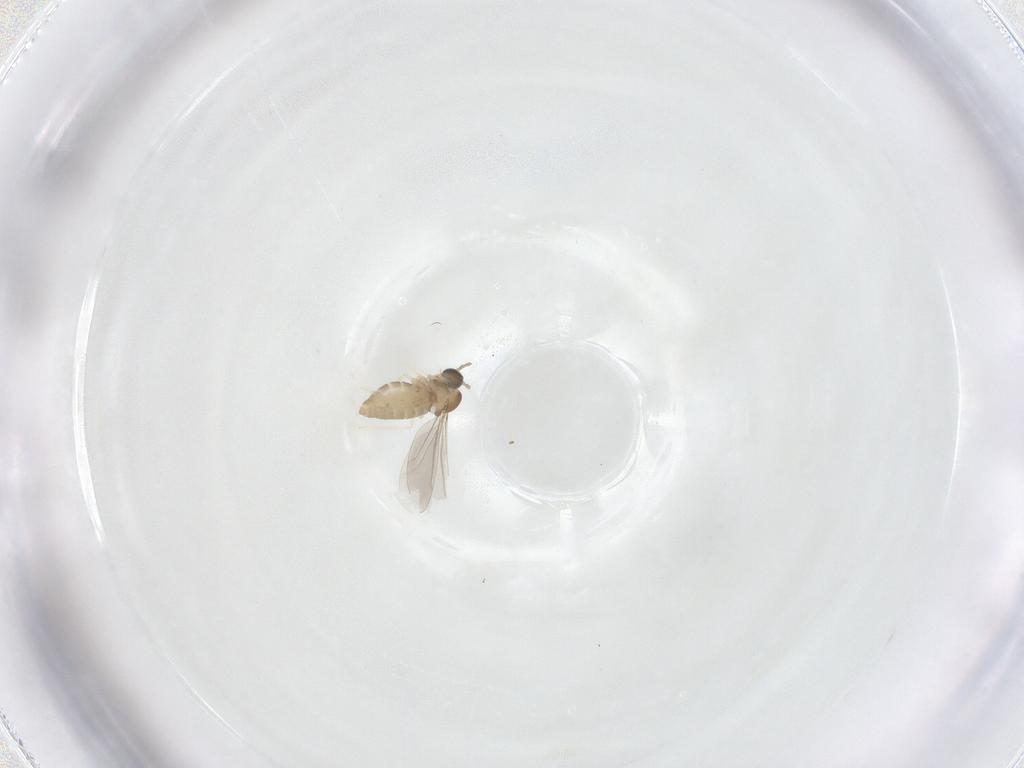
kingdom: Animalia
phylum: Arthropoda
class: Insecta
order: Diptera
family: Cecidomyiidae
